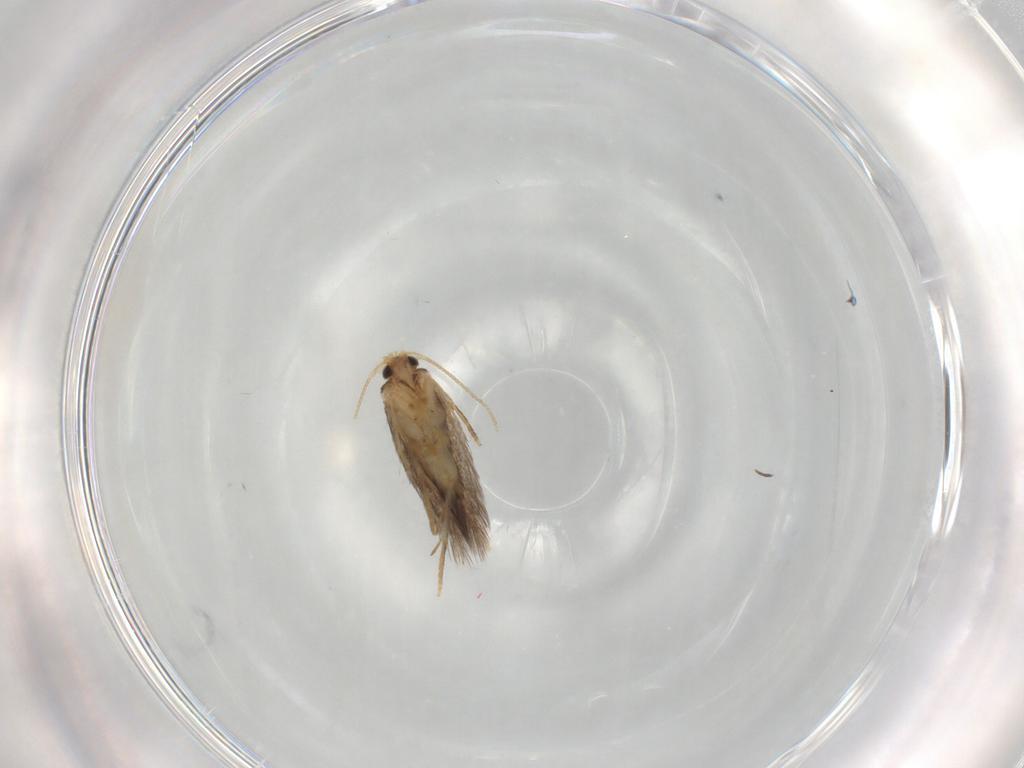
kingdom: Animalia
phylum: Arthropoda
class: Insecta
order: Lepidoptera
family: Nepticulidae
